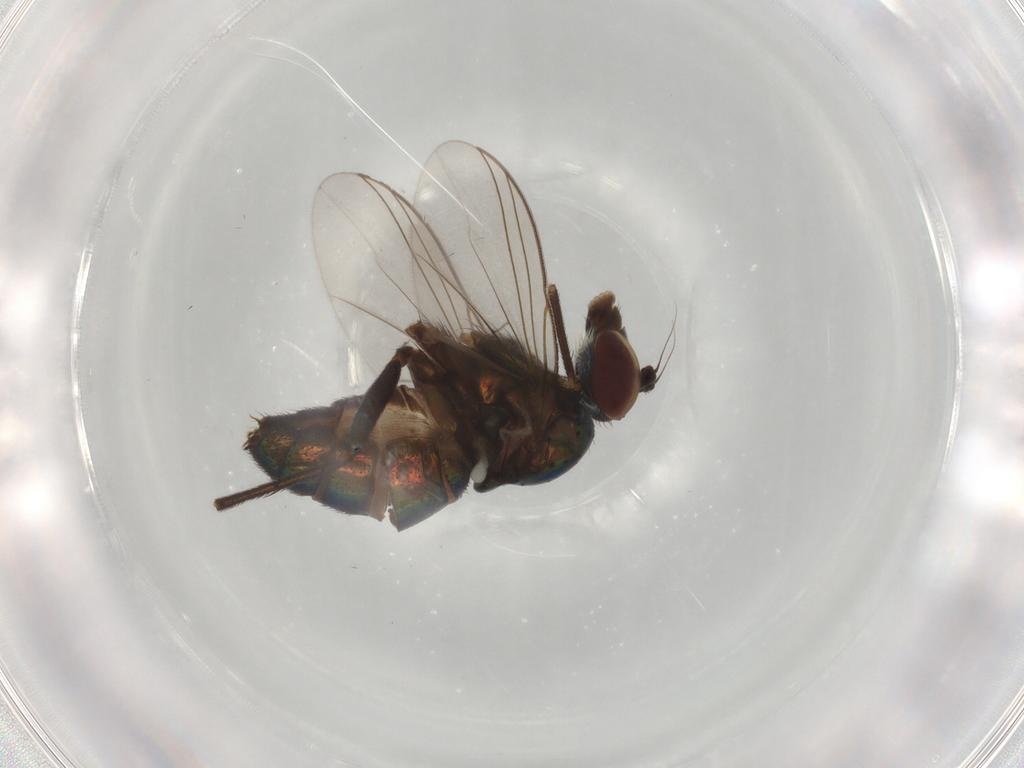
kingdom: Animalia
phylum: Arthropoda
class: Insecta
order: Diptera
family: Dolichopodidae
